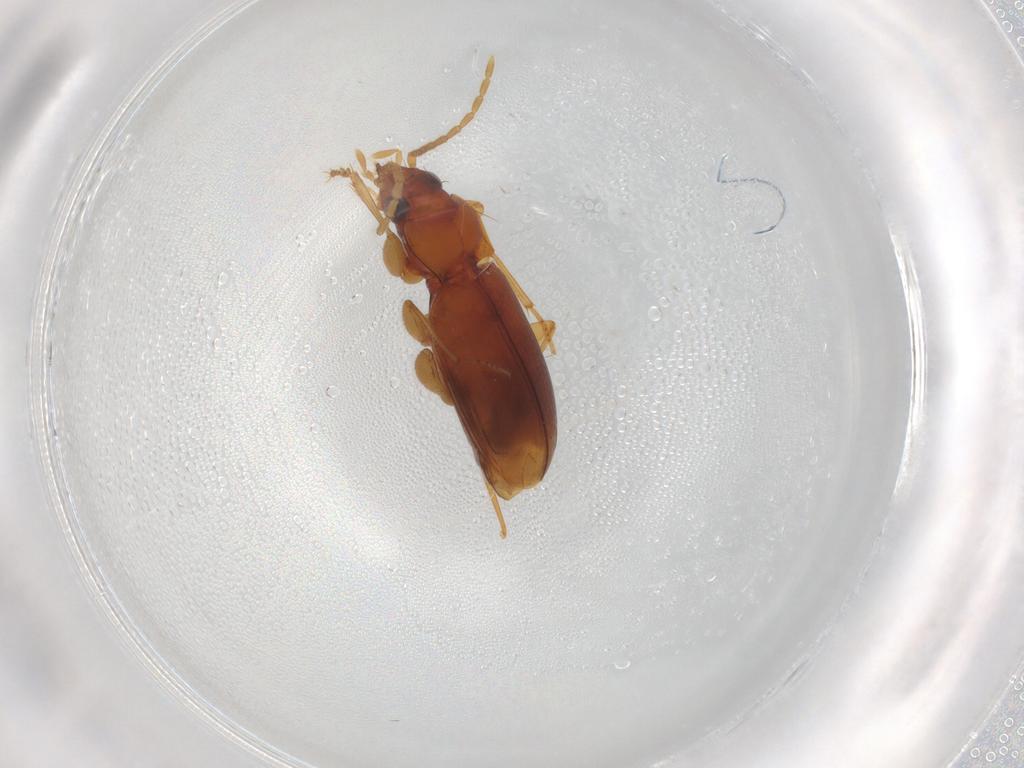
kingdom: Animalia
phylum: Arthropoda
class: Insecta
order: Coleoptera
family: Carabidae
